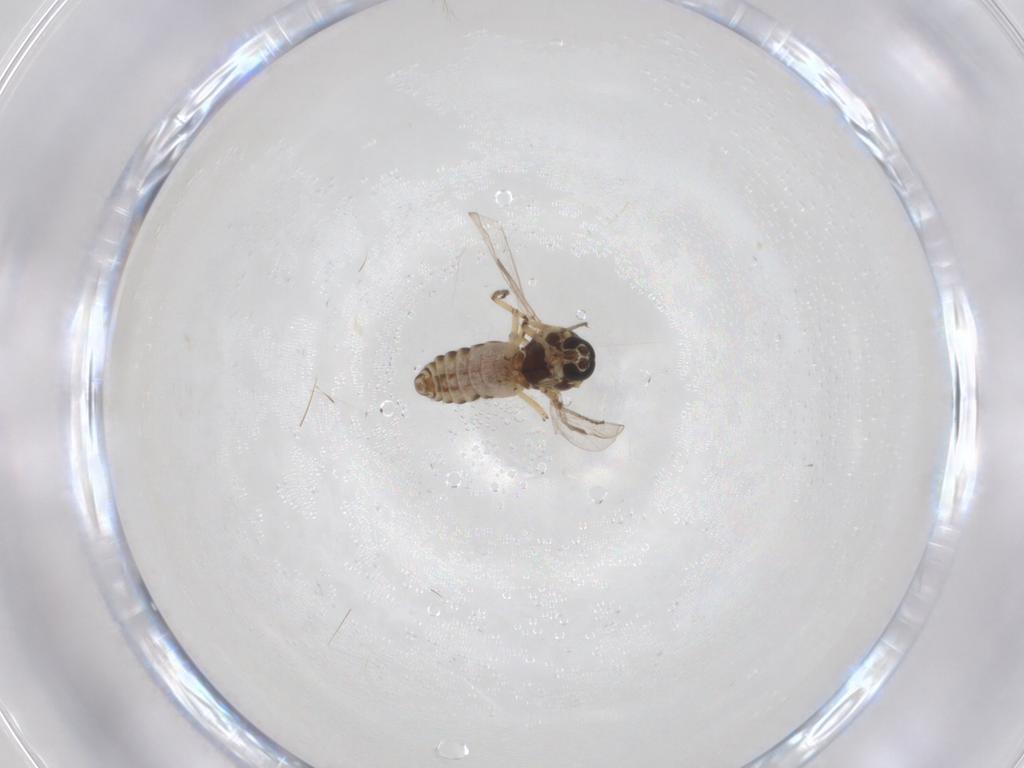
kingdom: Animalia
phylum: Arthropoda
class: Insecta
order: Diptera
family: Ceratopogonidae
